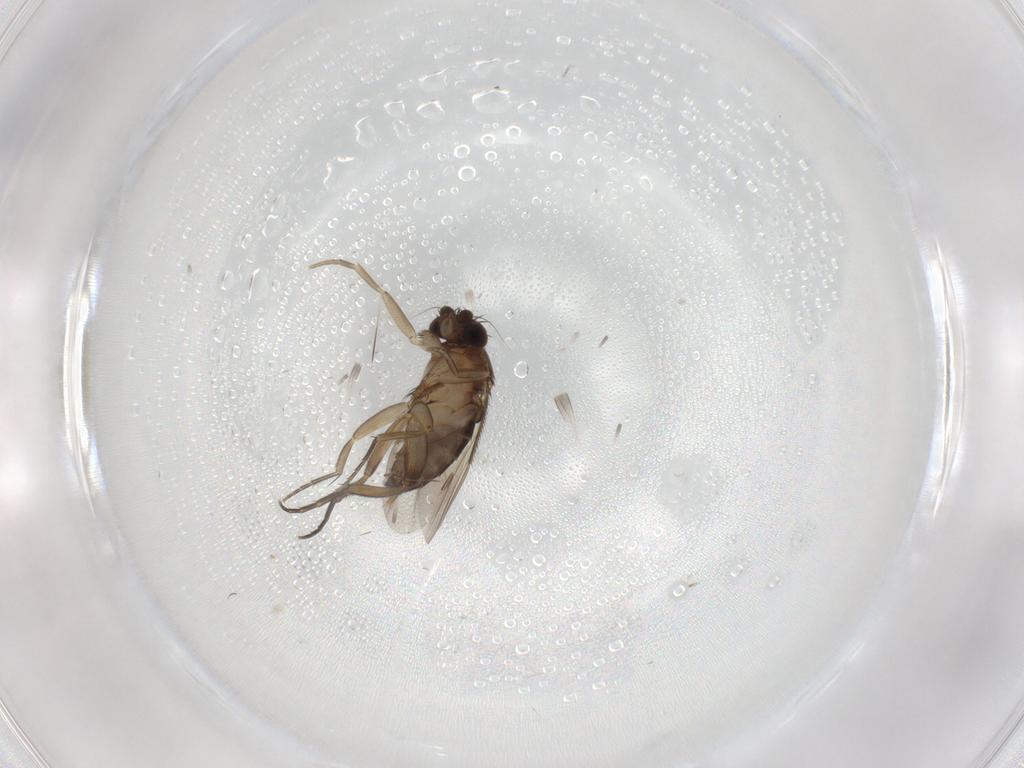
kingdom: Animalia
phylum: Arthropoda
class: Insecta
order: Diptera
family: Phoridae
